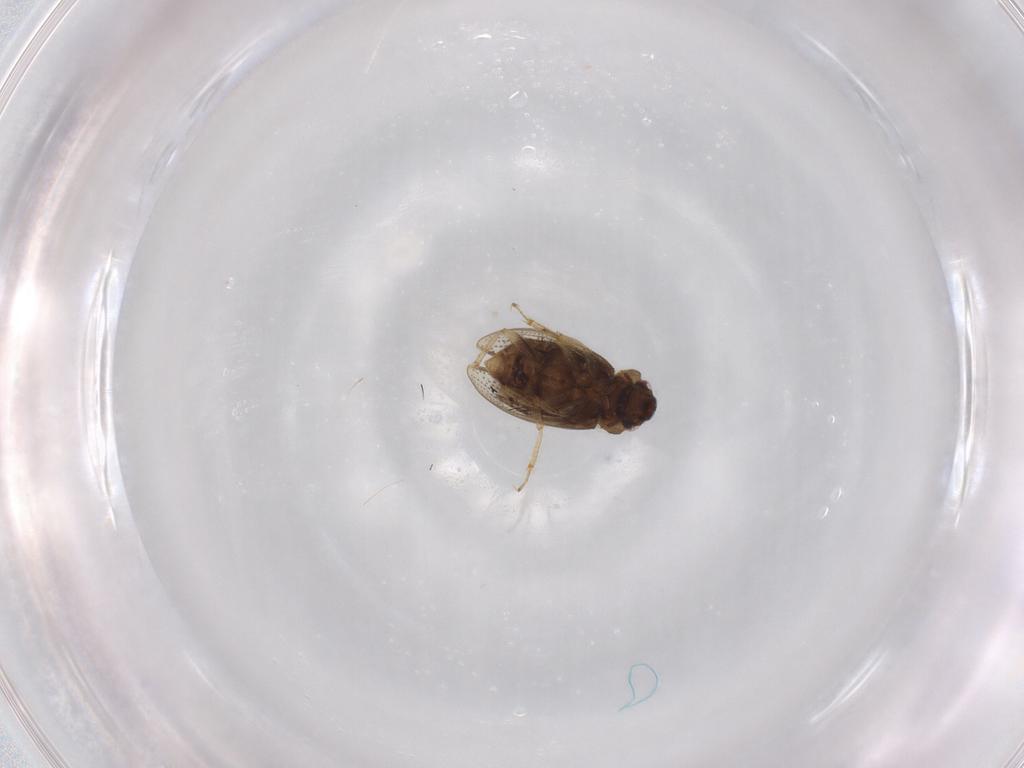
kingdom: Animalia
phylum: Arthropoda
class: Insecta
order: Coleoptera
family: Hydraenidae
